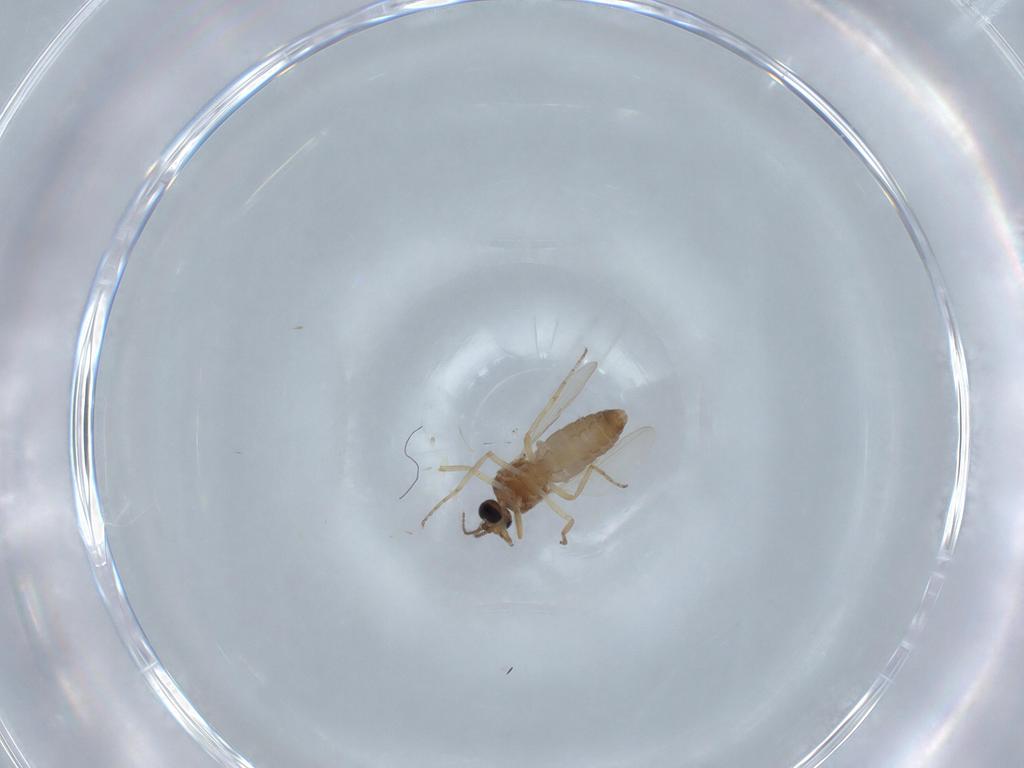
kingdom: Animalia
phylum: Arthropoda
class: Insecta
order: Diptera
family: Ceratopogonidae
